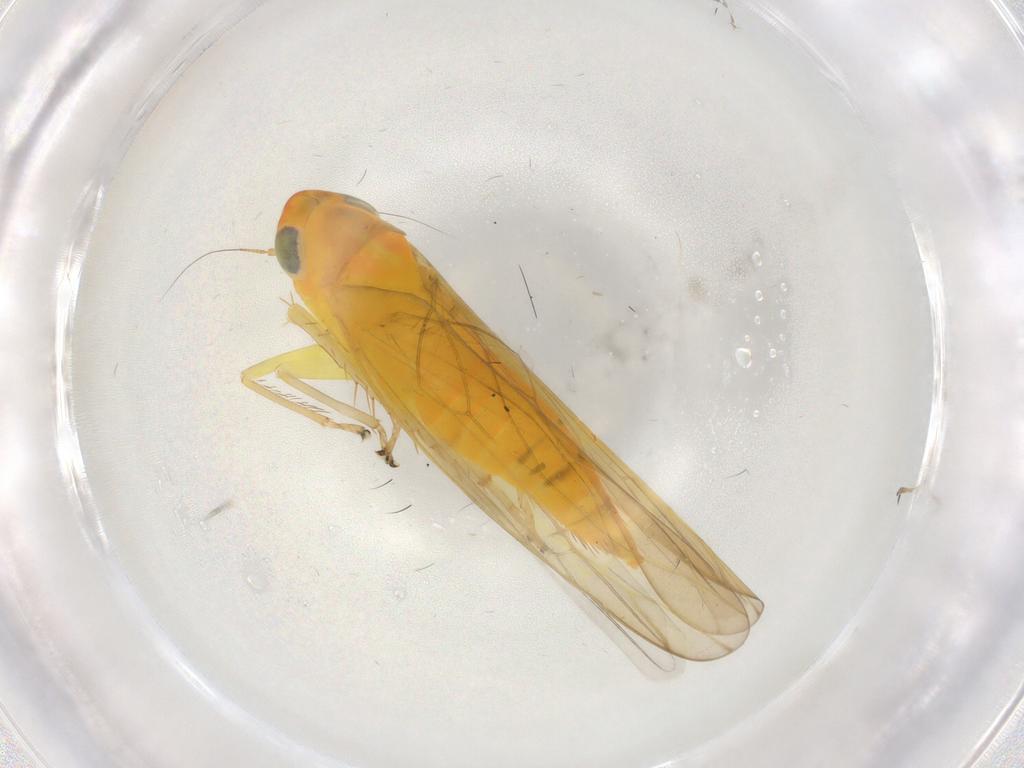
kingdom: Animalia
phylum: Arthropoda
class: Insecta
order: Hemiptera
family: Cicadellidae
